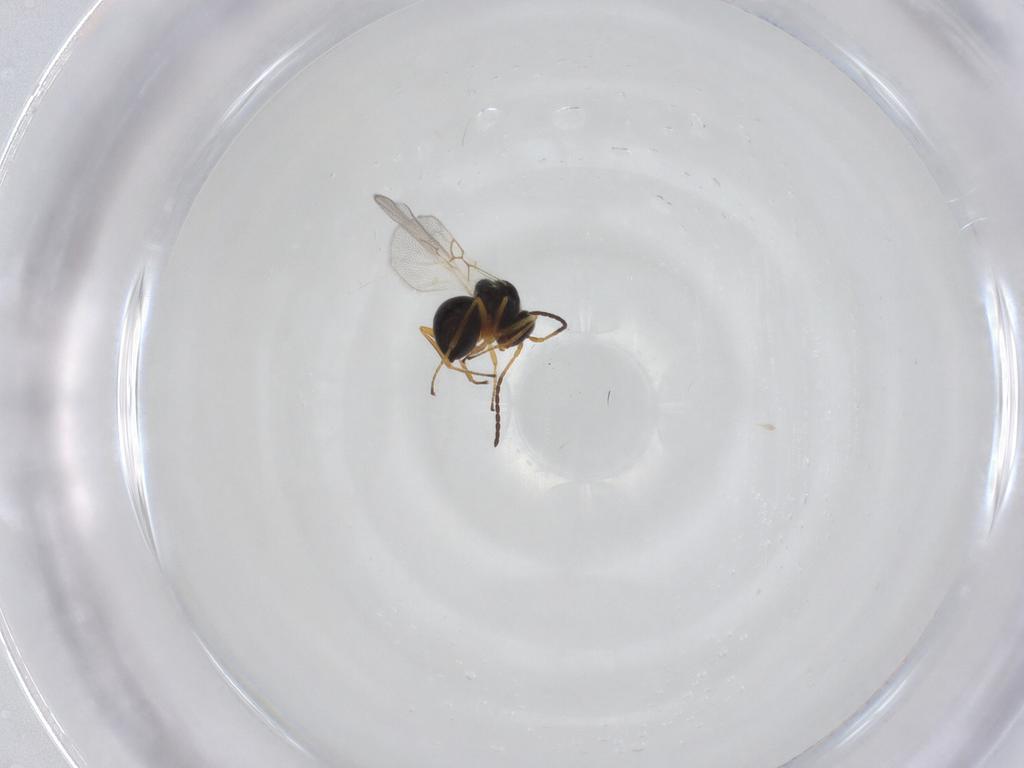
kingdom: Animalia
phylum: Arthropoda
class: Insecta
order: Hymenoptera
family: Figitidae
